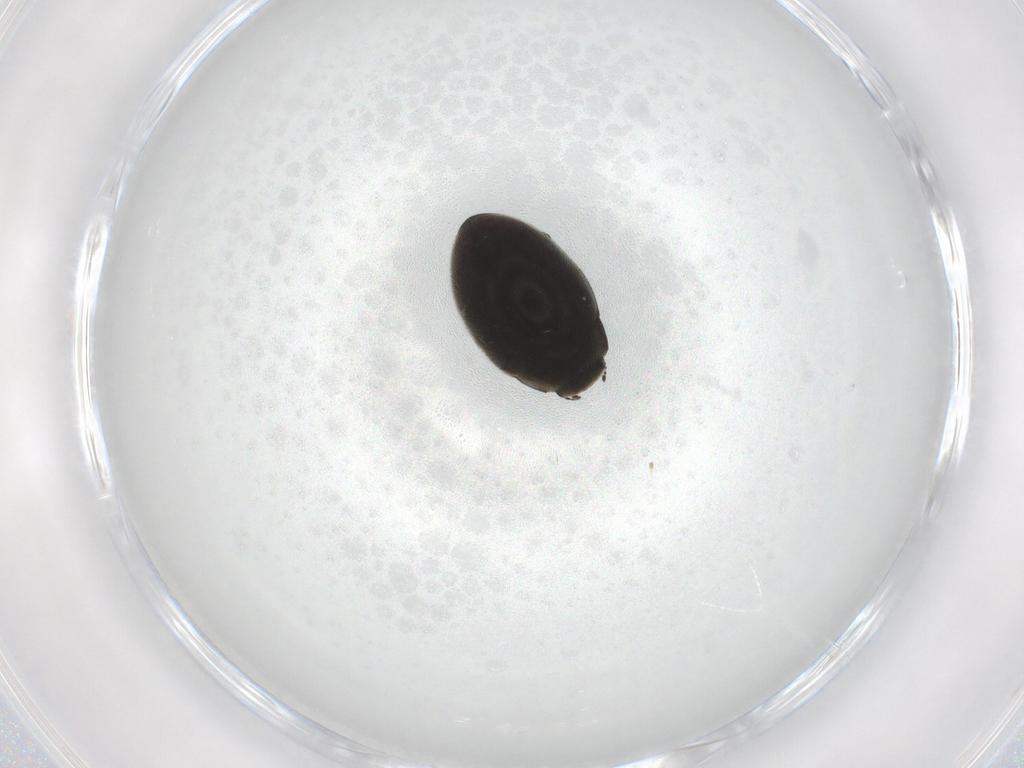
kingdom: Animalia
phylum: Arthropoda
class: Insecta
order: Coleoptera
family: Limnichidae
